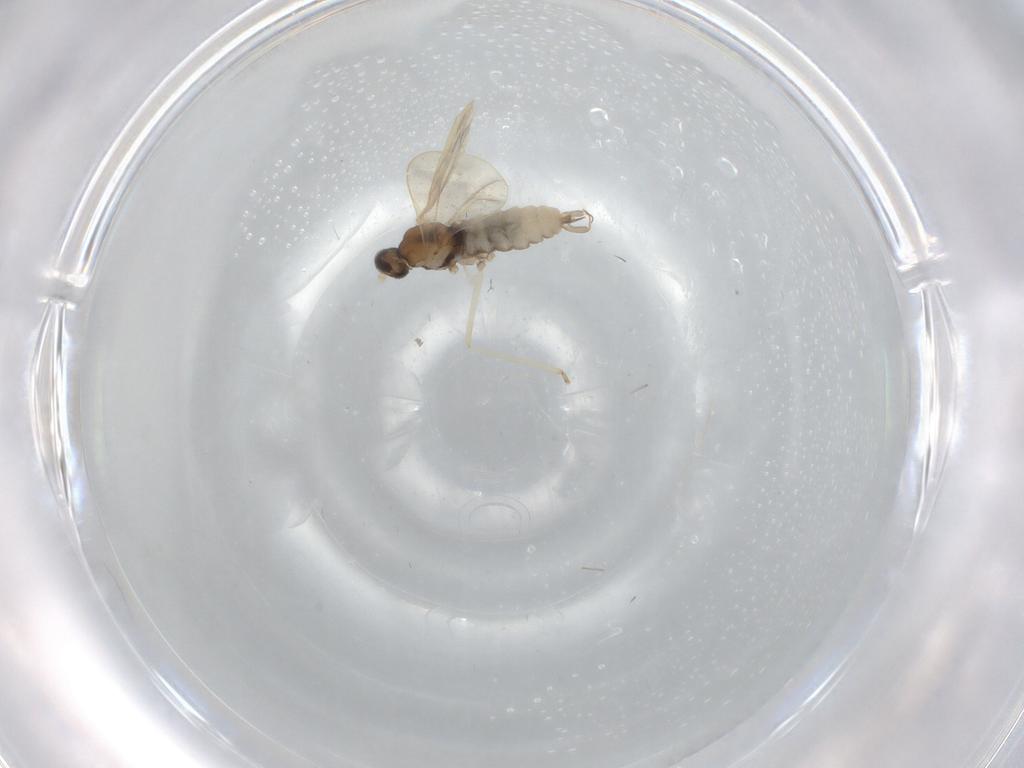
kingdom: Animalia
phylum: Arthropoda
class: Insecta
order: Diptera
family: Cecidomyiidae
